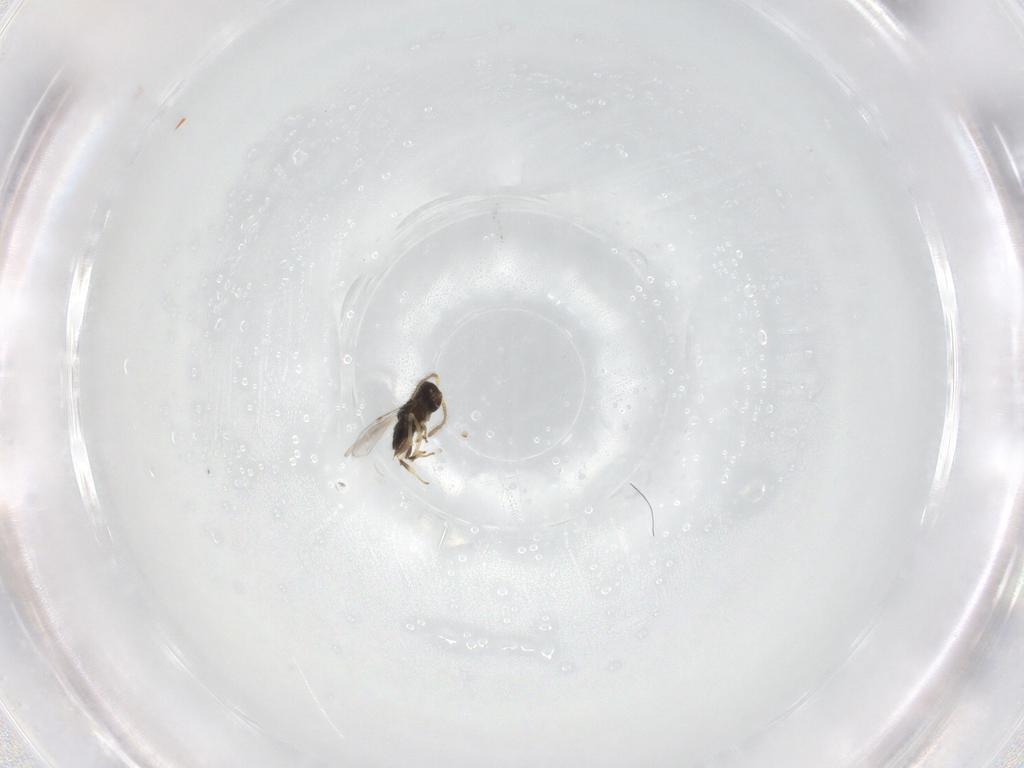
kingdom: Animalia
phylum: Arthropoda
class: Insecta
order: Hymenoptera
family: Encyrtidae
